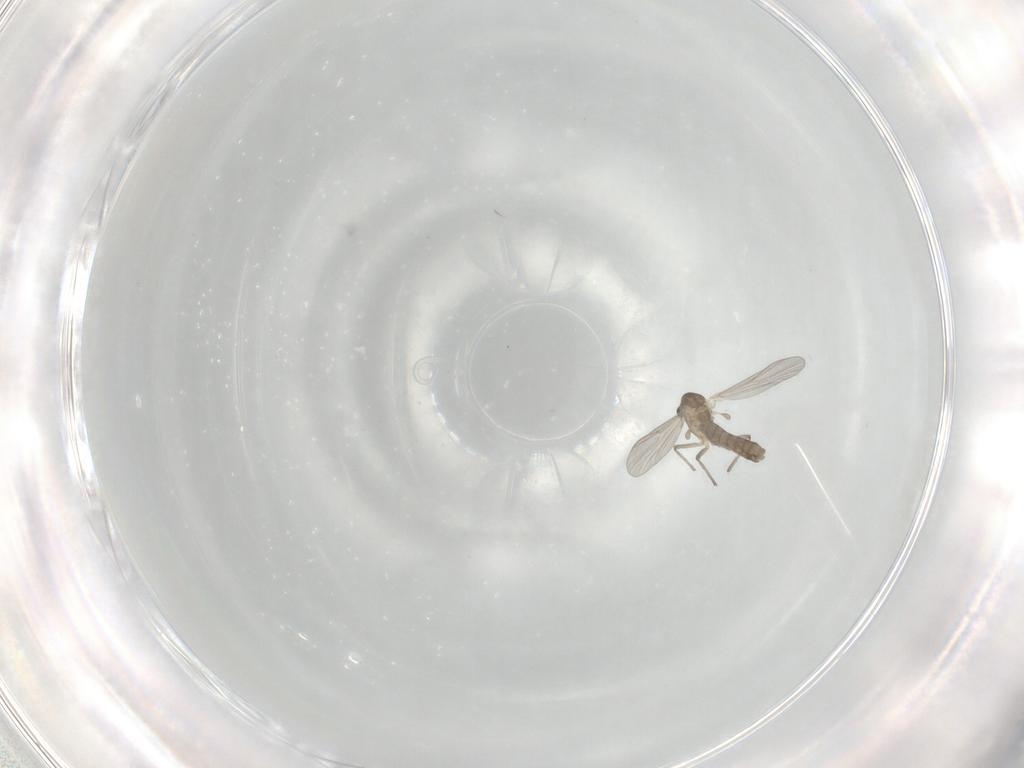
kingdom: Animalia
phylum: Arthropoda
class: Insecta
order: Diptera
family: Chironomidae
